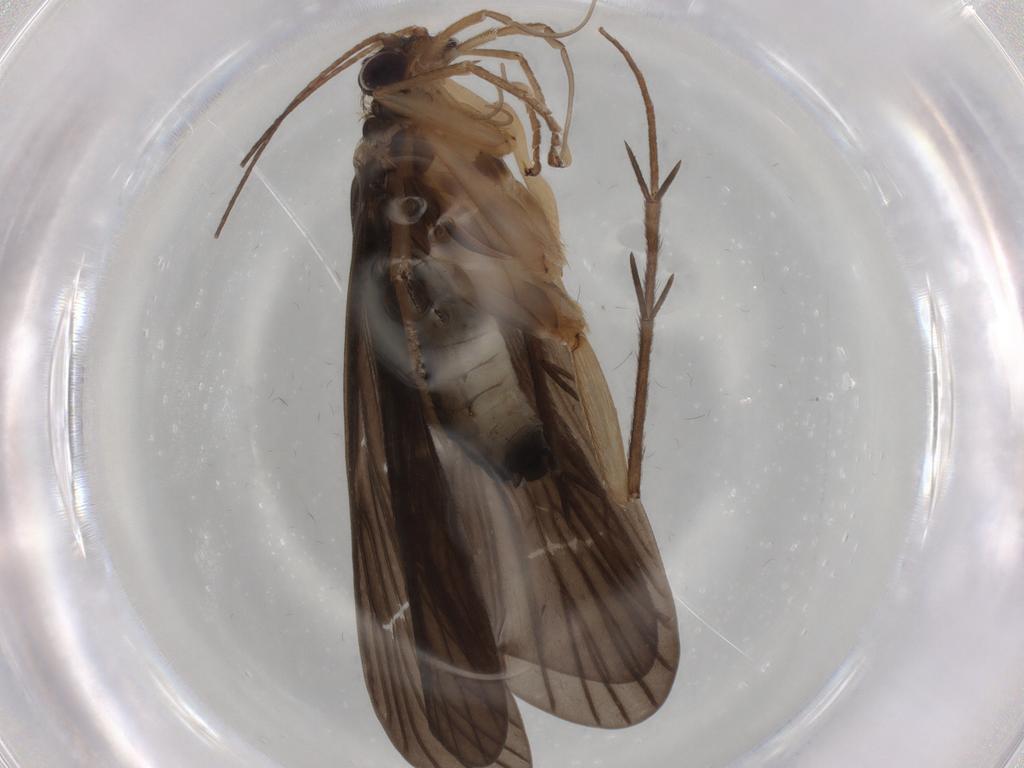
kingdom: Animalia
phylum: Arthropoda
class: Insecta
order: Trichoptera
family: Philopotamidae
